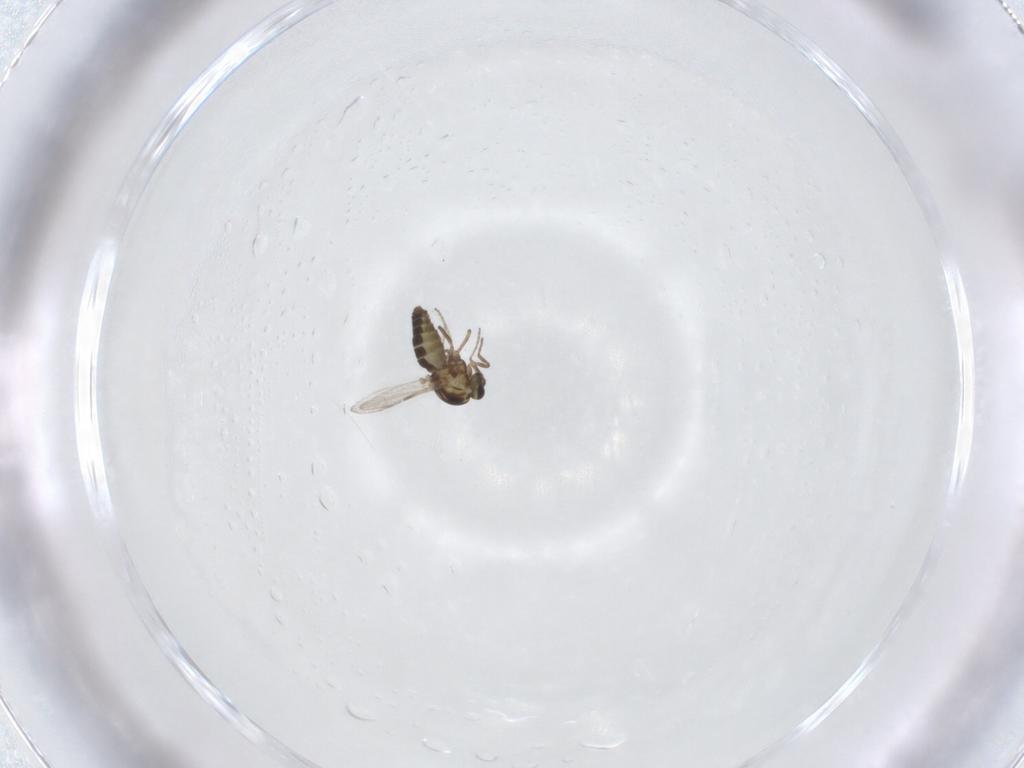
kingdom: Animalia
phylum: Arthropoda
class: Insecta
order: Diptera
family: Ceratopogonidae
